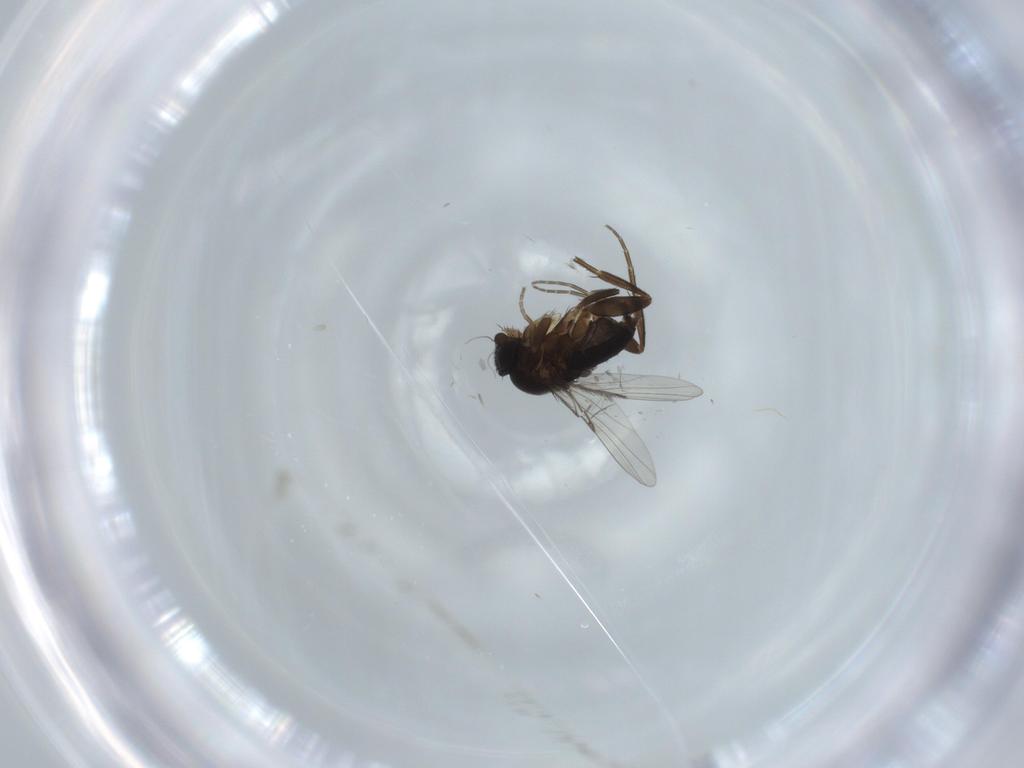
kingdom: Animalia
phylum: Arthropoda
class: Insecta
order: Diptera
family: Phoridae
